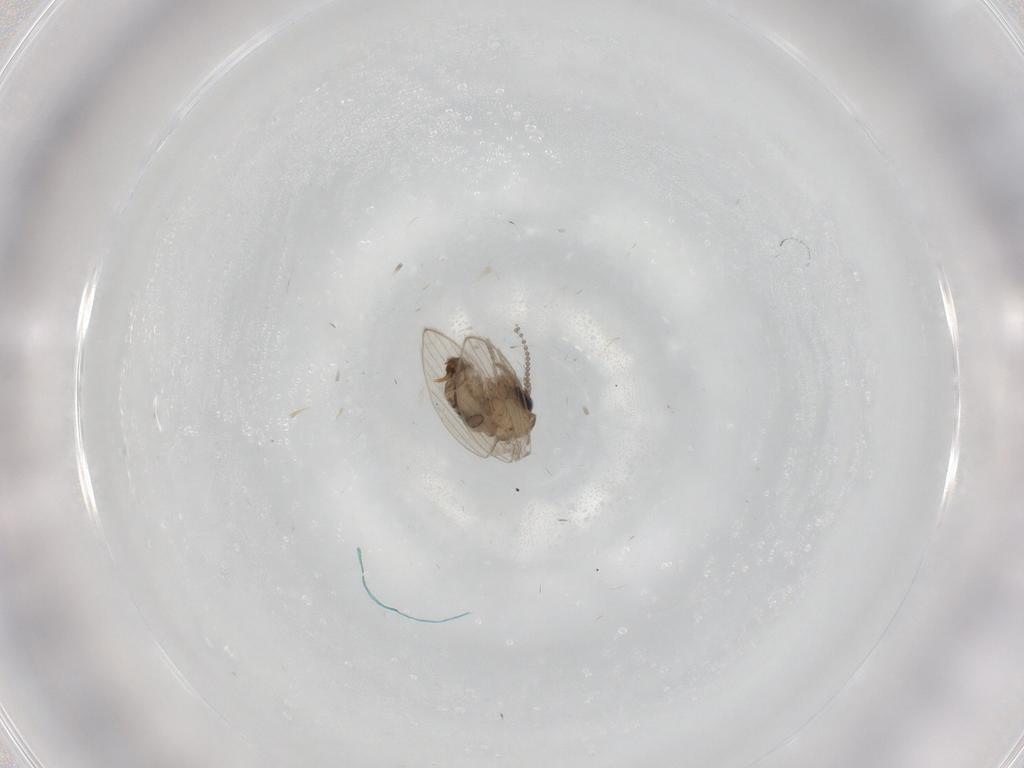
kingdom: Animalia
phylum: Arthropoda
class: Insecta
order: Diptera
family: Psychodidae
